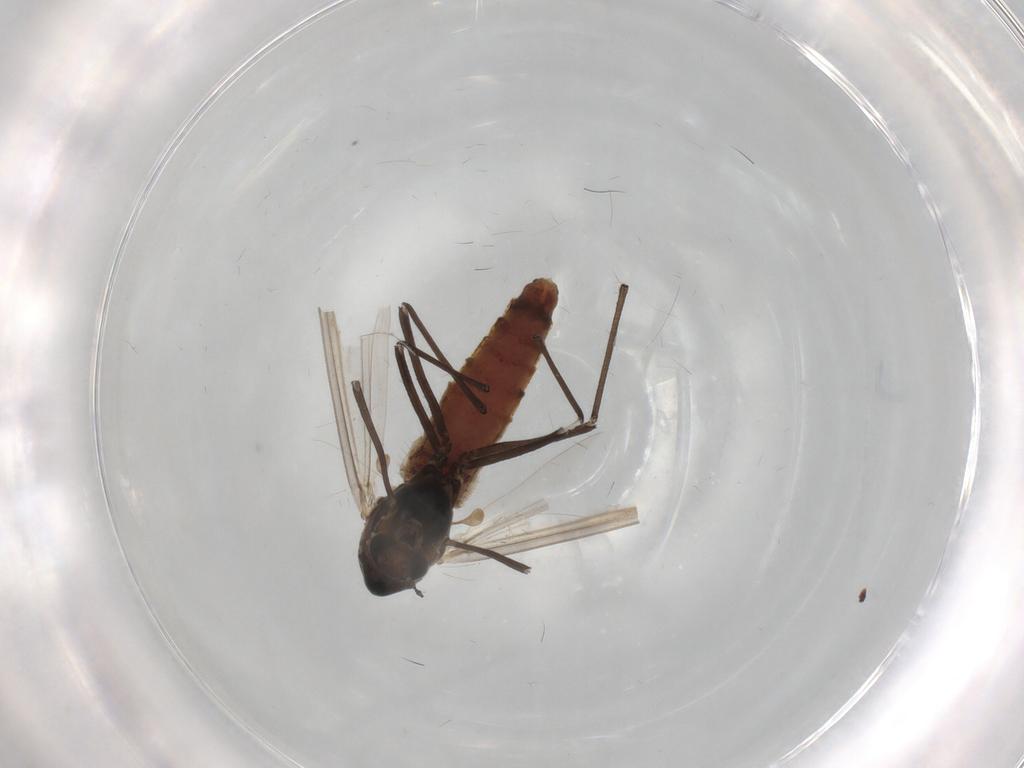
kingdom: Animalia
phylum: Arthropoda
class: Insecta
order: Diptera
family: Chironomidae
